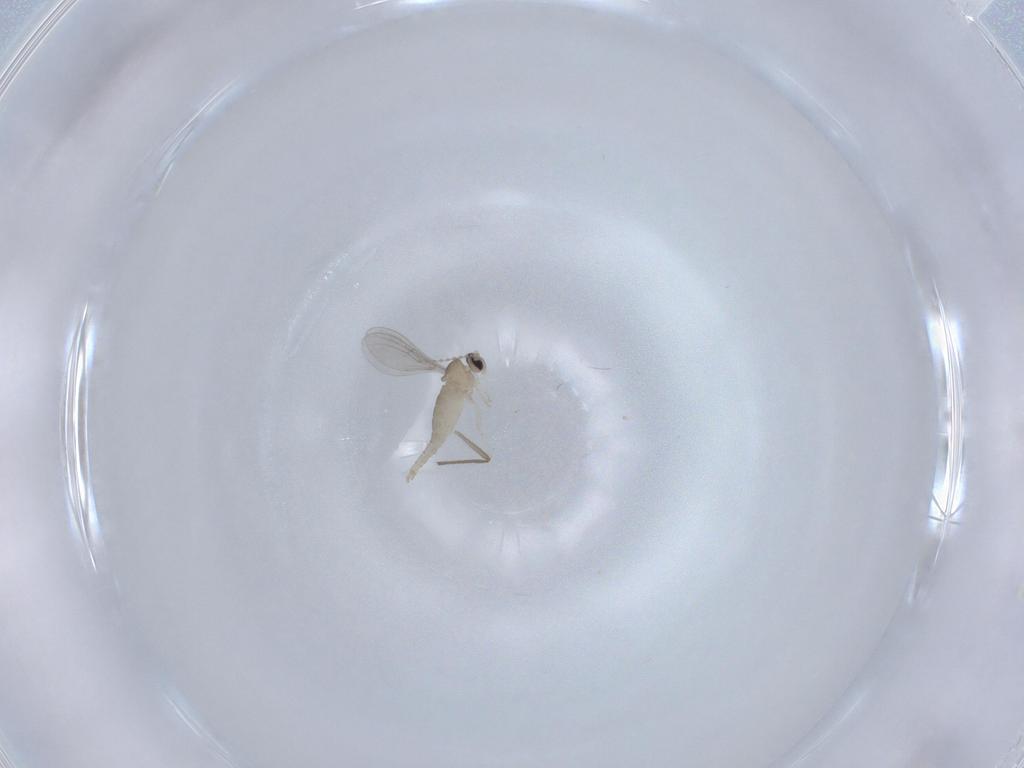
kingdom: Animalia
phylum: Arthropoda
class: Insecta
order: Diptera
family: Cecidomyiidae
